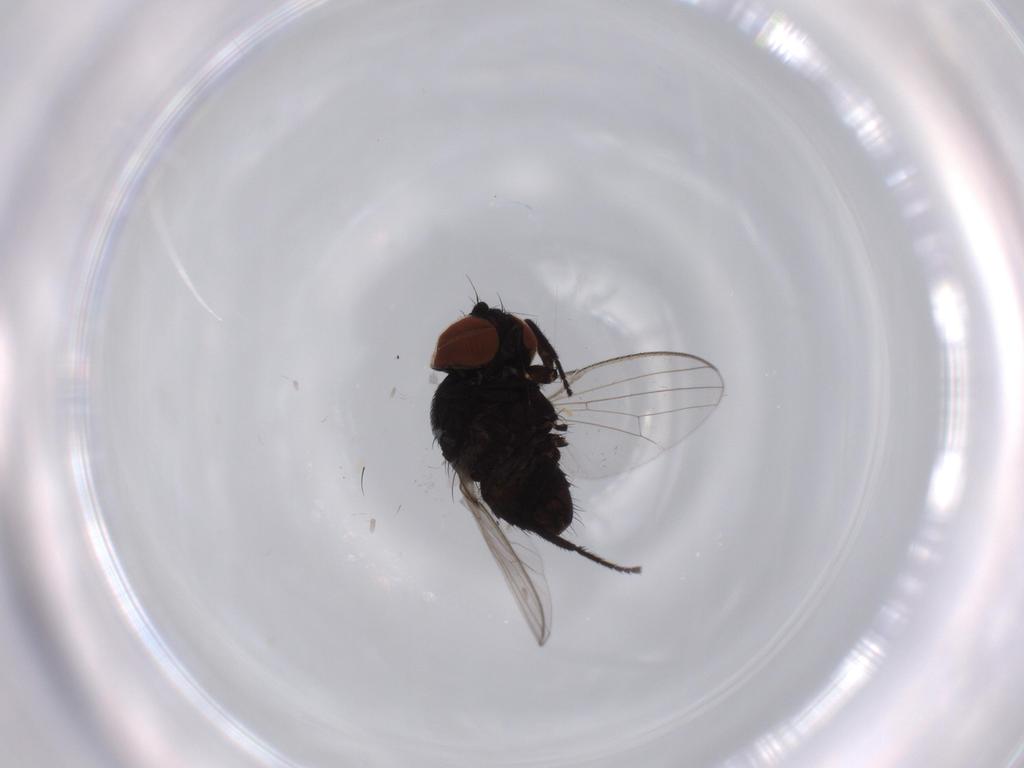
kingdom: Animalia
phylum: Arthropoda
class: Insecta
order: Diptera
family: Milichiidae
